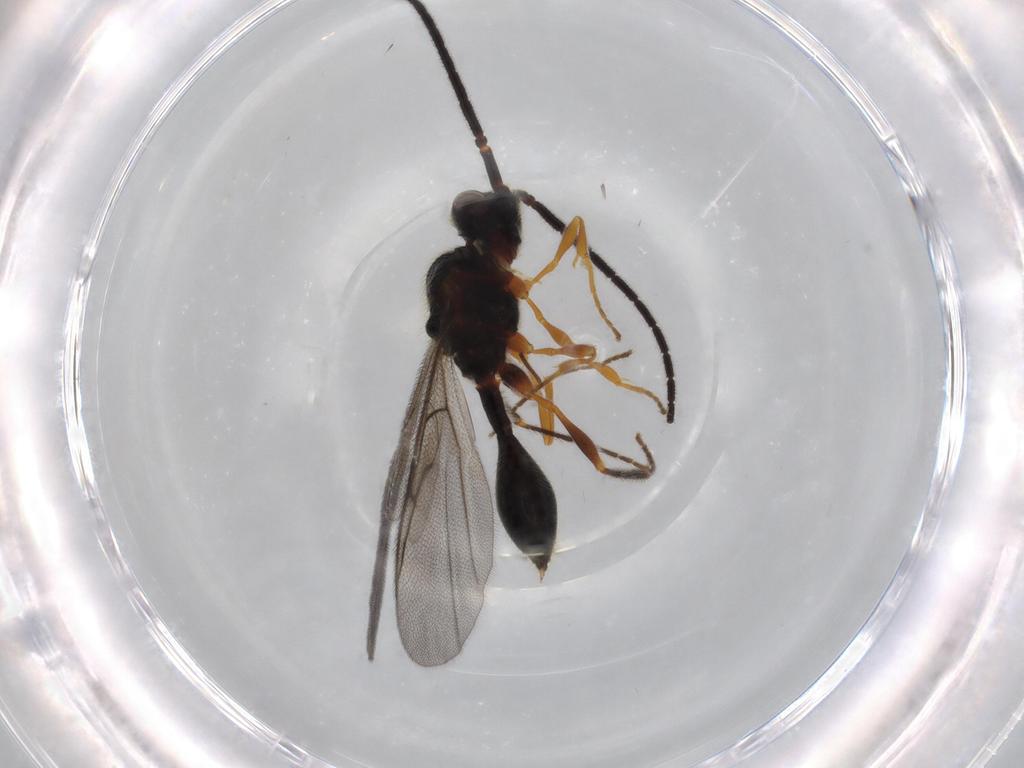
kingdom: Animalia
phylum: Arthropoda
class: Insecta
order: Hymenoptera
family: Diapriidae
